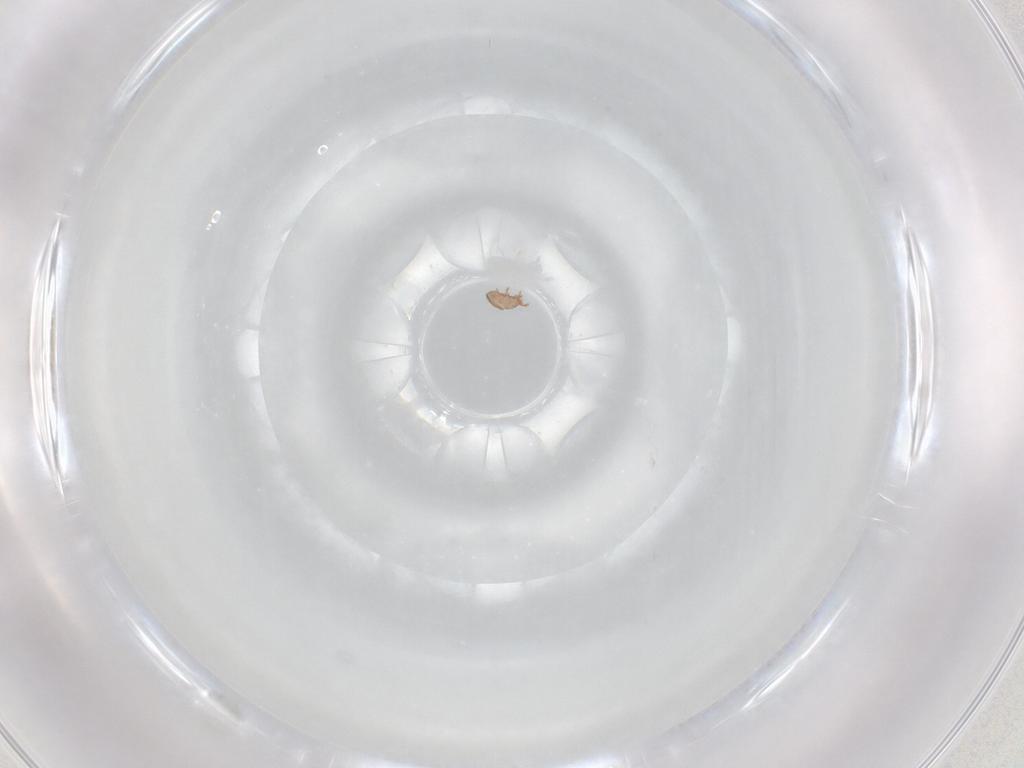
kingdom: Animalia
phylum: Arthropoda
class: Arachnida
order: Sarcoptiformes
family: Eremaeidae
